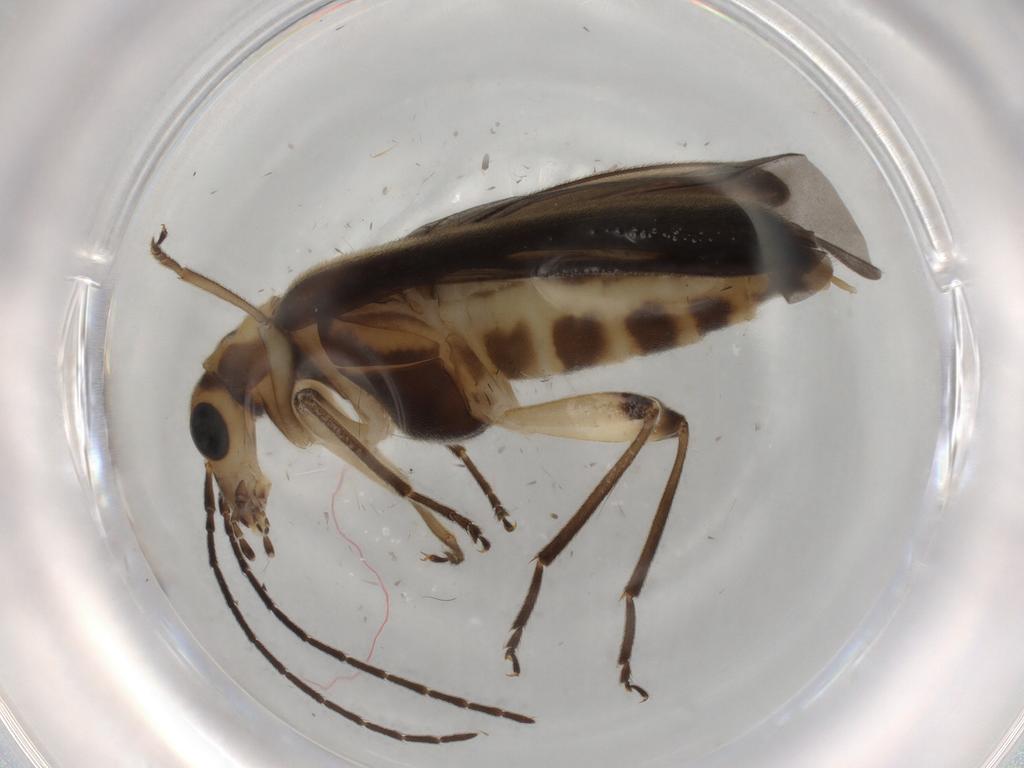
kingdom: Animalia
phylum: Arthropoda
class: Insecta
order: Coleoptera
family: Oedemeridae
